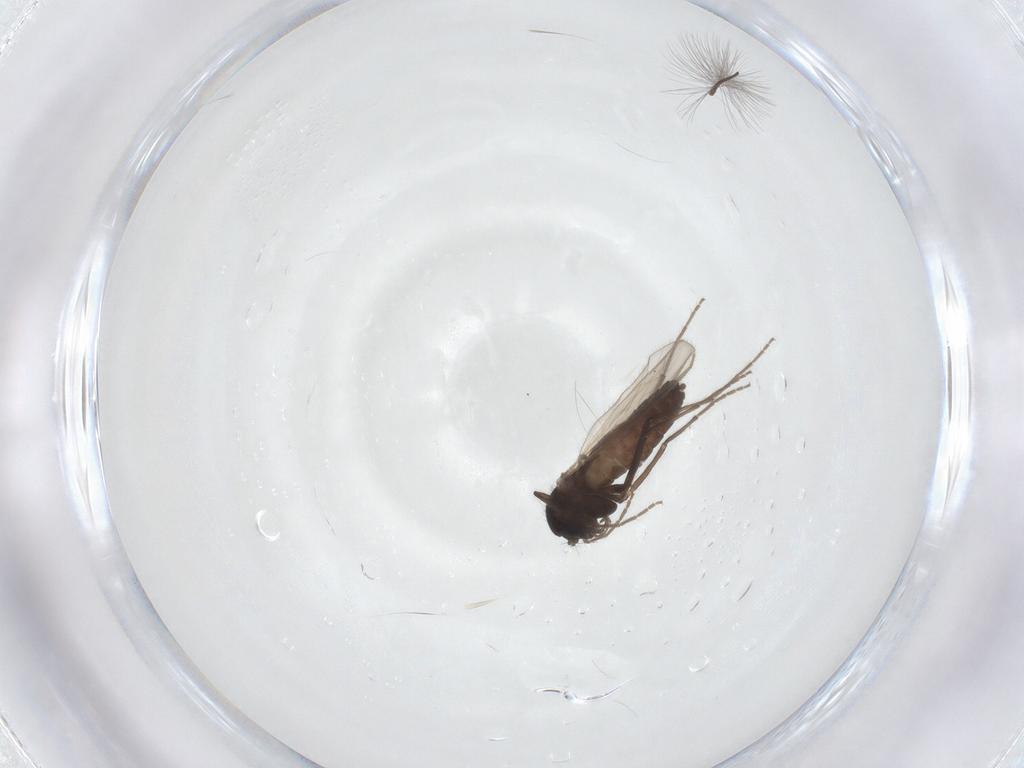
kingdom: Animalia
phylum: Arthropoda
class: Insecta
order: Diptera
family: Chironomidae
